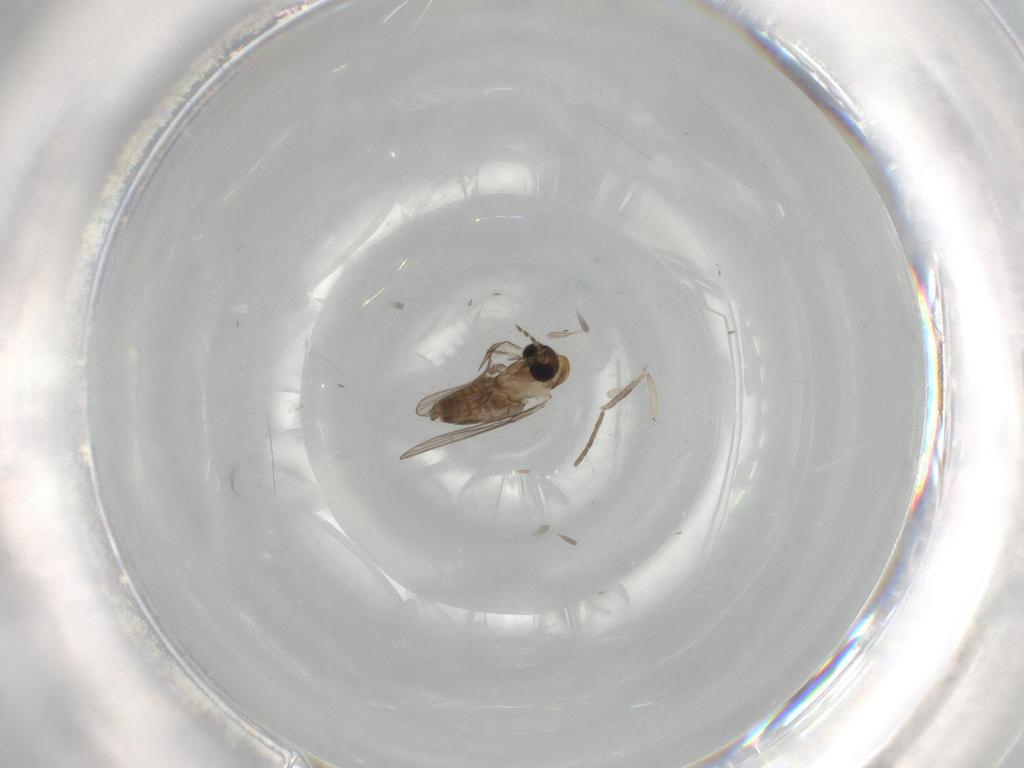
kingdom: Animalia
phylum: Arthropoda
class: Insecta
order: Diptera
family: Psychodidae
